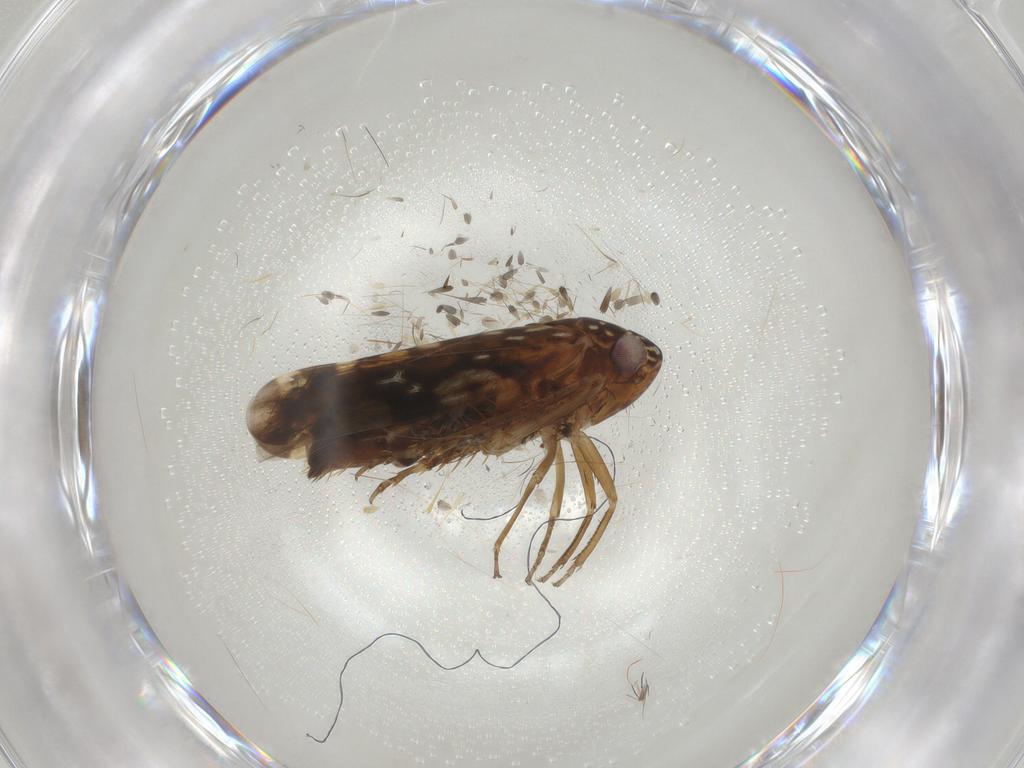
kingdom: Animalia
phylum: Arthropoda
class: Insecta
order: Hemiptera
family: Cicadellidae
